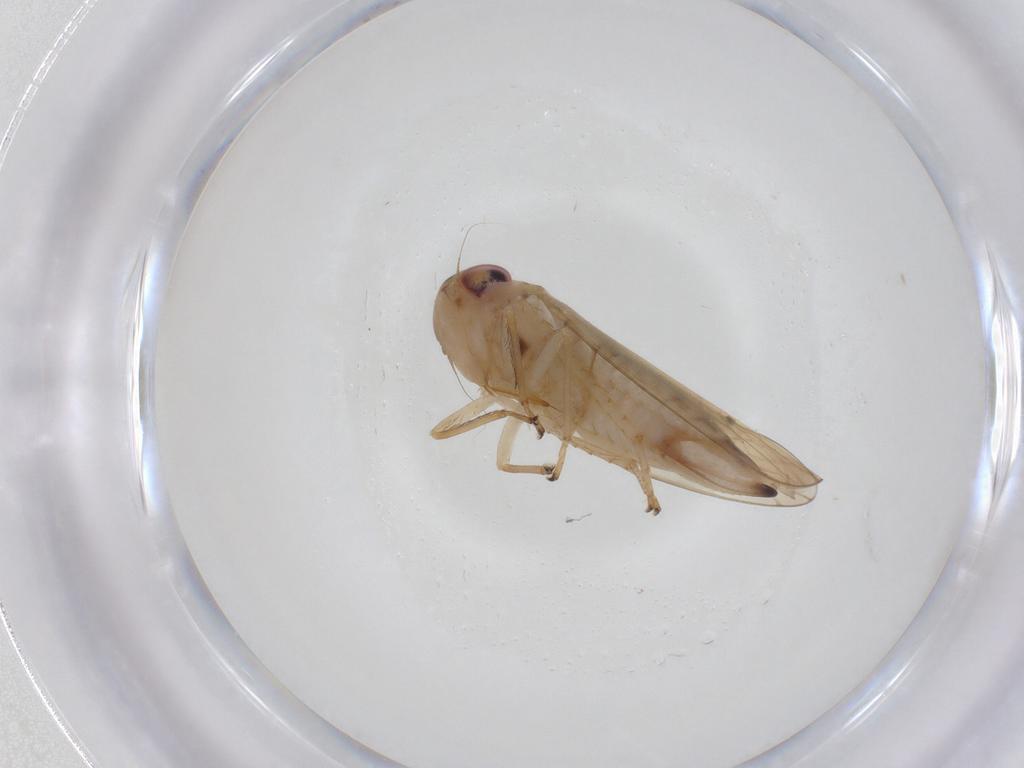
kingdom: Animalia
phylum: Arthropoda
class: Insecta
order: Hemiptera
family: Cicadellidae
